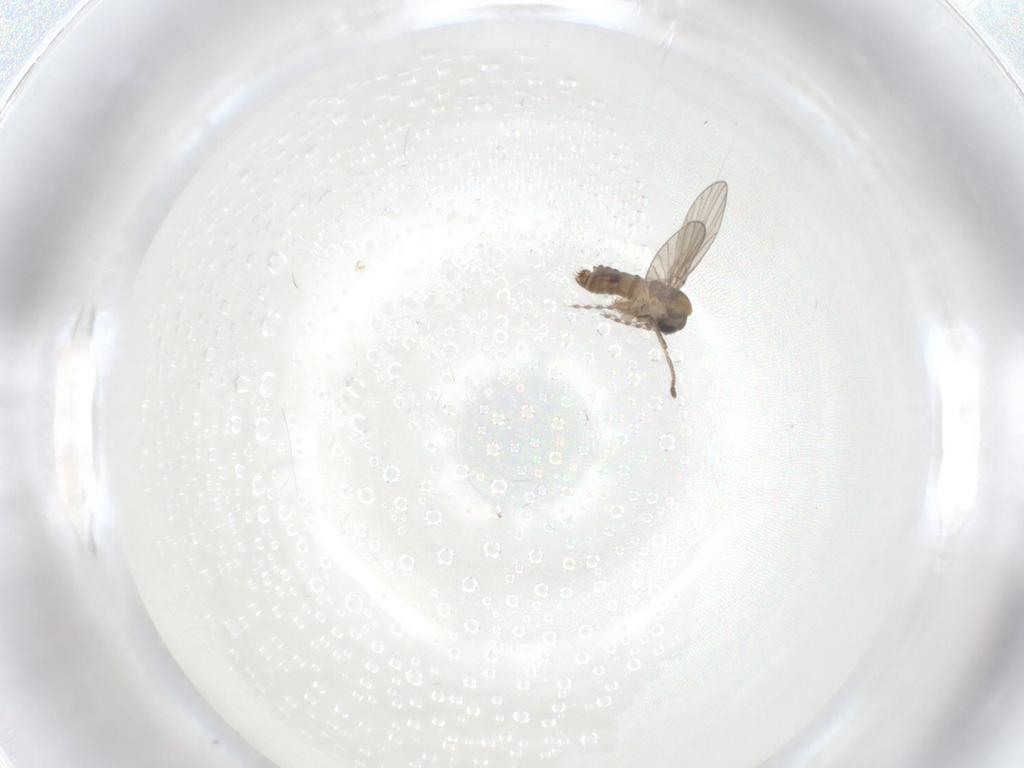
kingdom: Animalia
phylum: Arthropoda
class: Insecta
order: Diptera
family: Psychodidae
